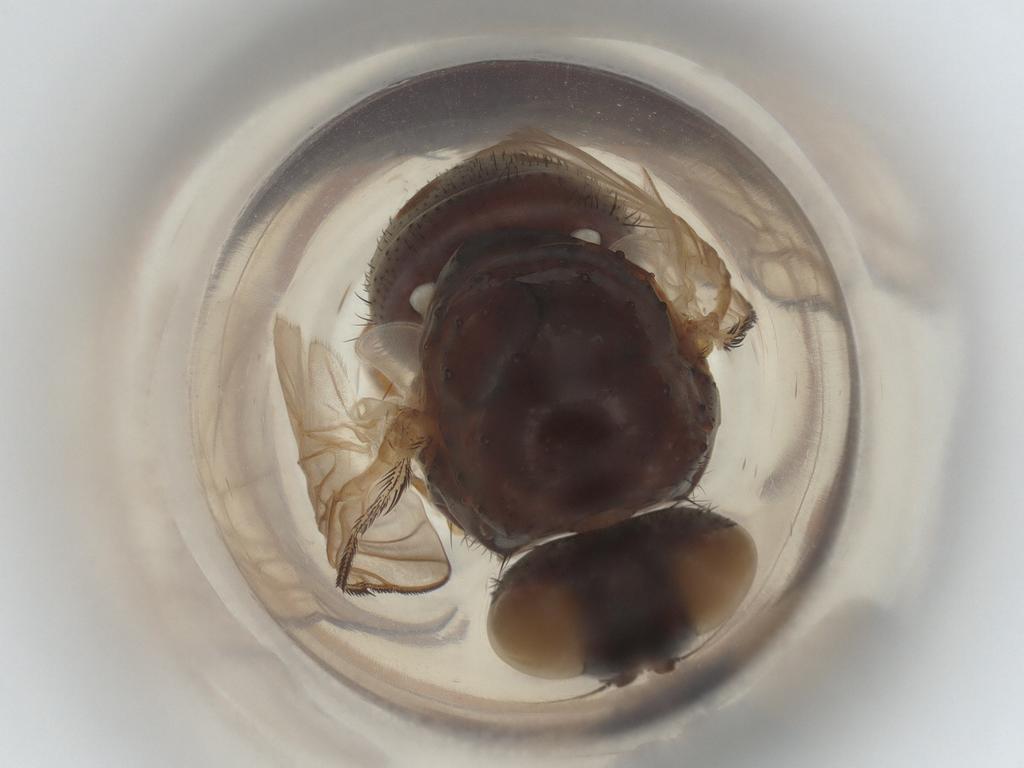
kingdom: Animalia
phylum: Arthropoda
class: Insecta
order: Diptera
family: Muscidae
